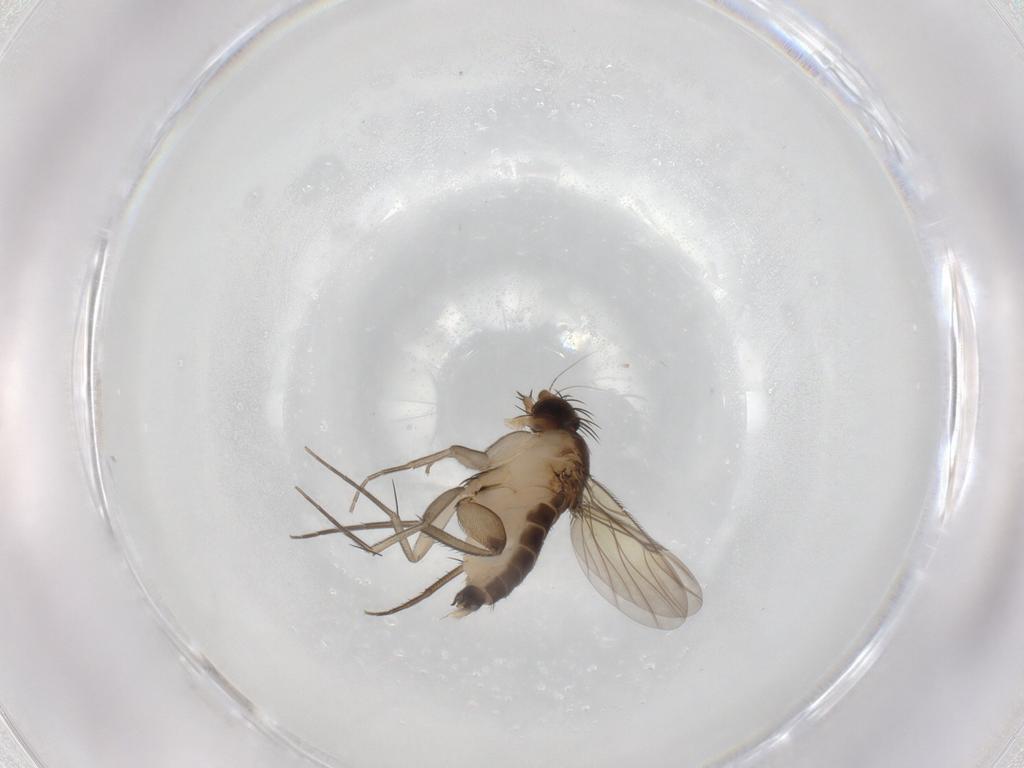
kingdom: Animalia
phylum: Arthropoda
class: Insecta
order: Diptera
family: Phoridae
